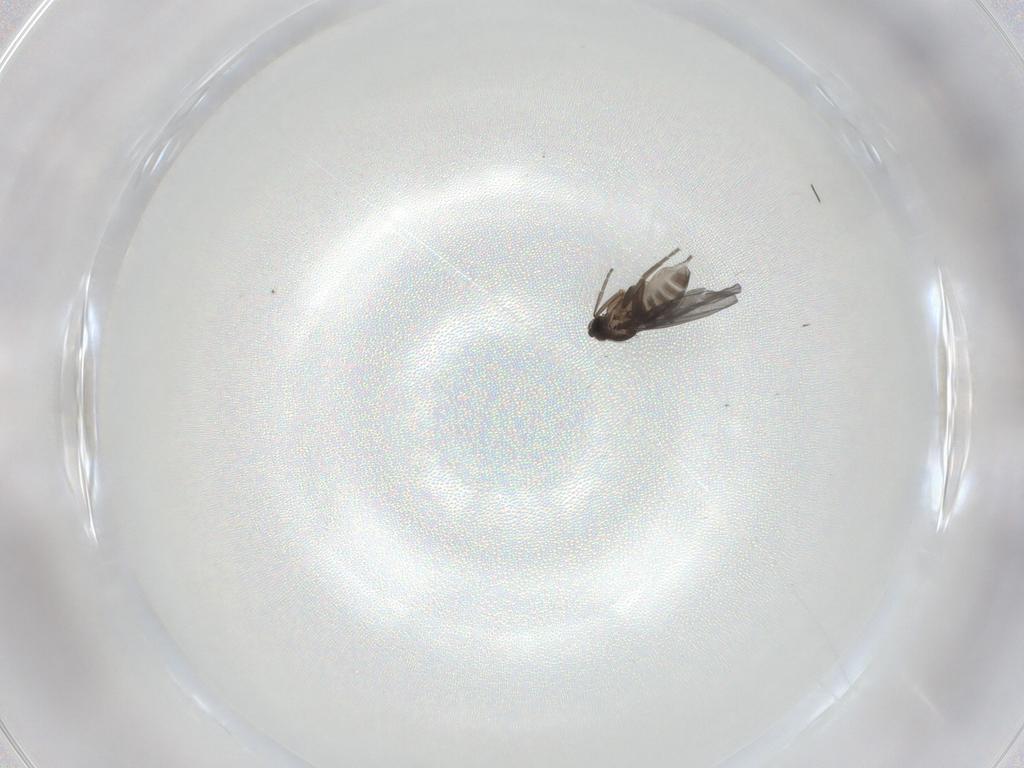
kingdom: Animalia
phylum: Arthropoda
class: Insecta
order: Diptera
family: Phoridae
